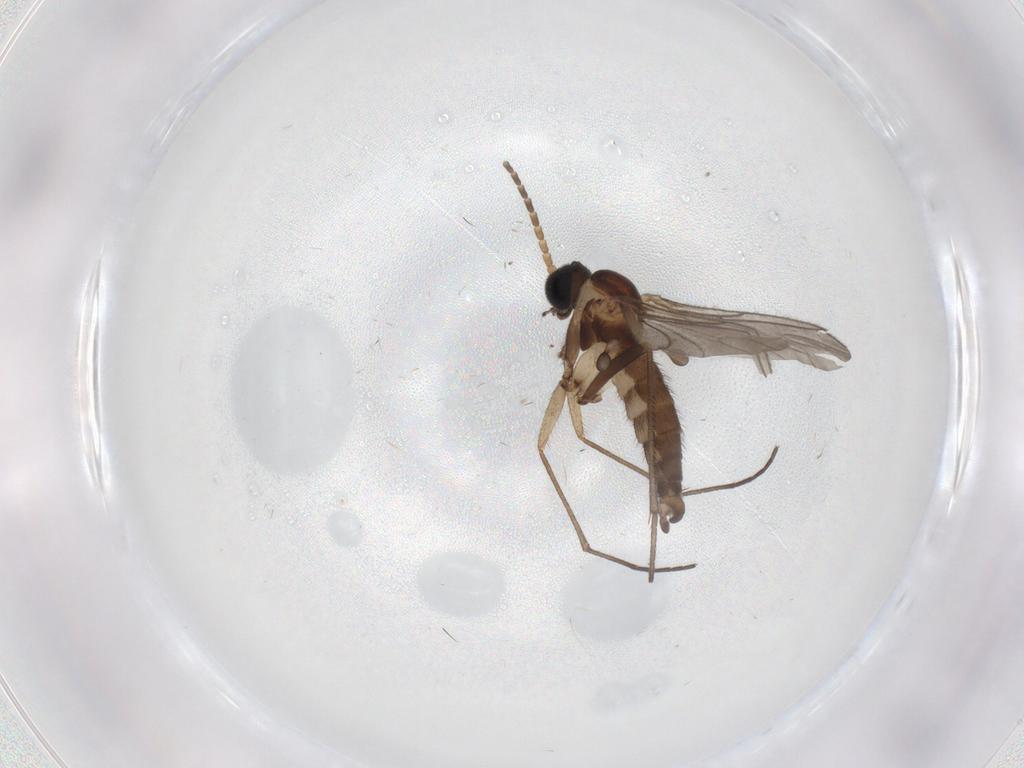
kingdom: Animalia
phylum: Arthropoda
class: Insecta
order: Diptera
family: Sciaridae
